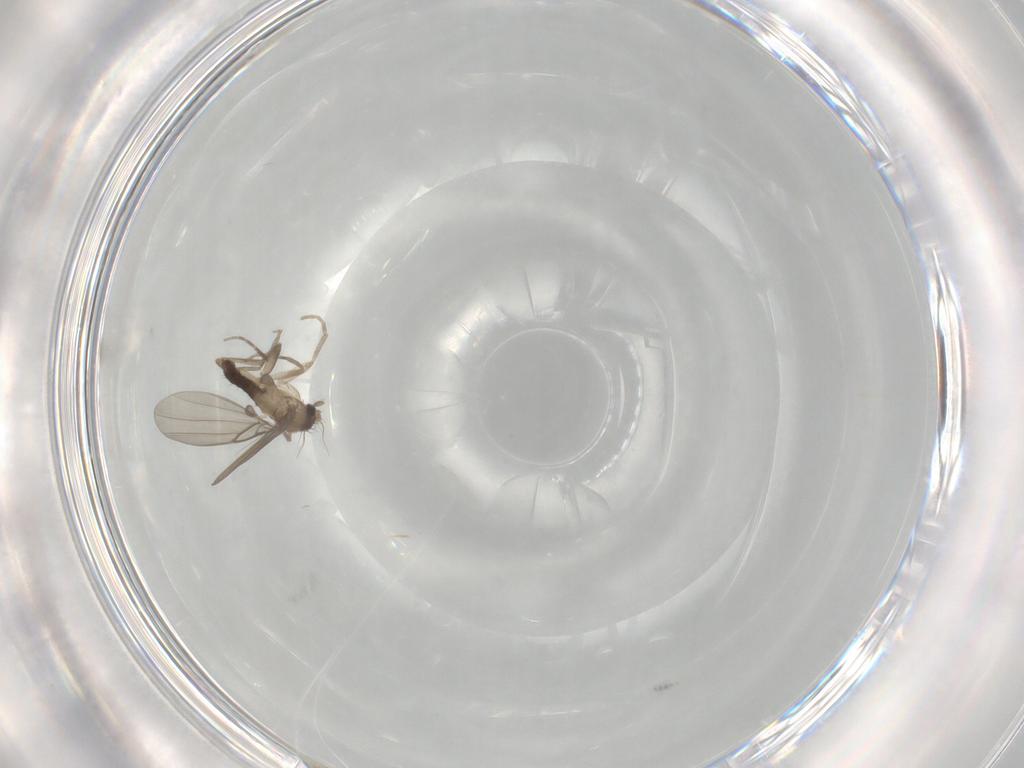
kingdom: Animalia
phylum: Arthropoda
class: Insecta
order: Diptera
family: Phoridae
